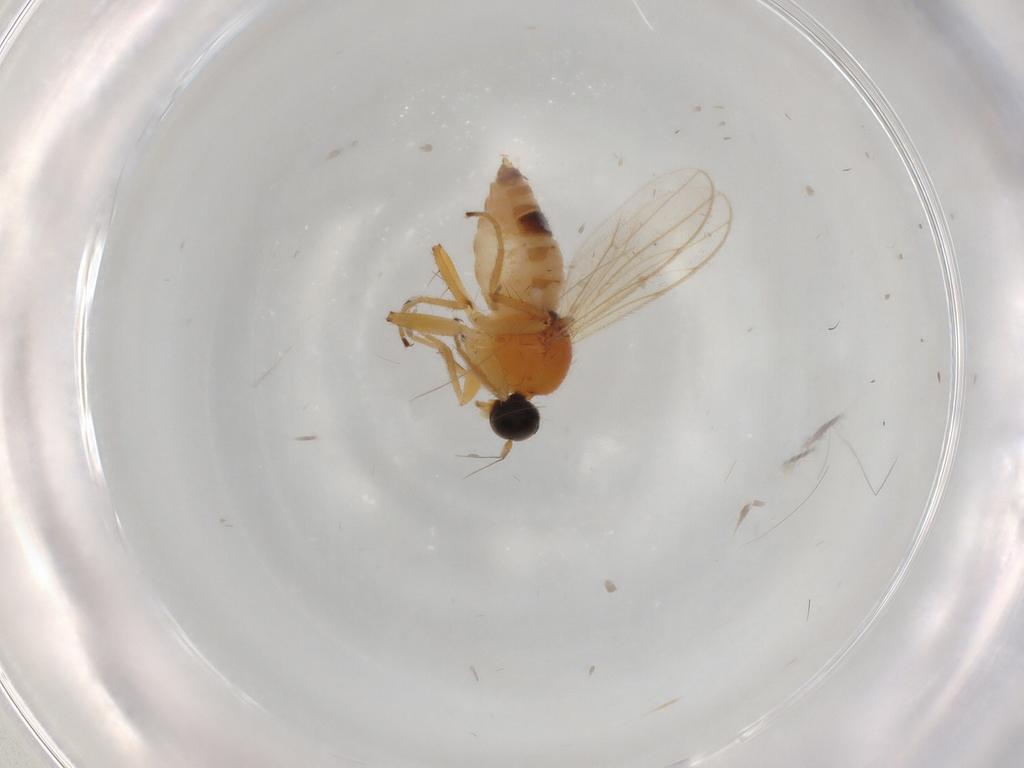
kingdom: Animalia
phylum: Arthropoda
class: Insecta
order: Diptera
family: Hybotidae
